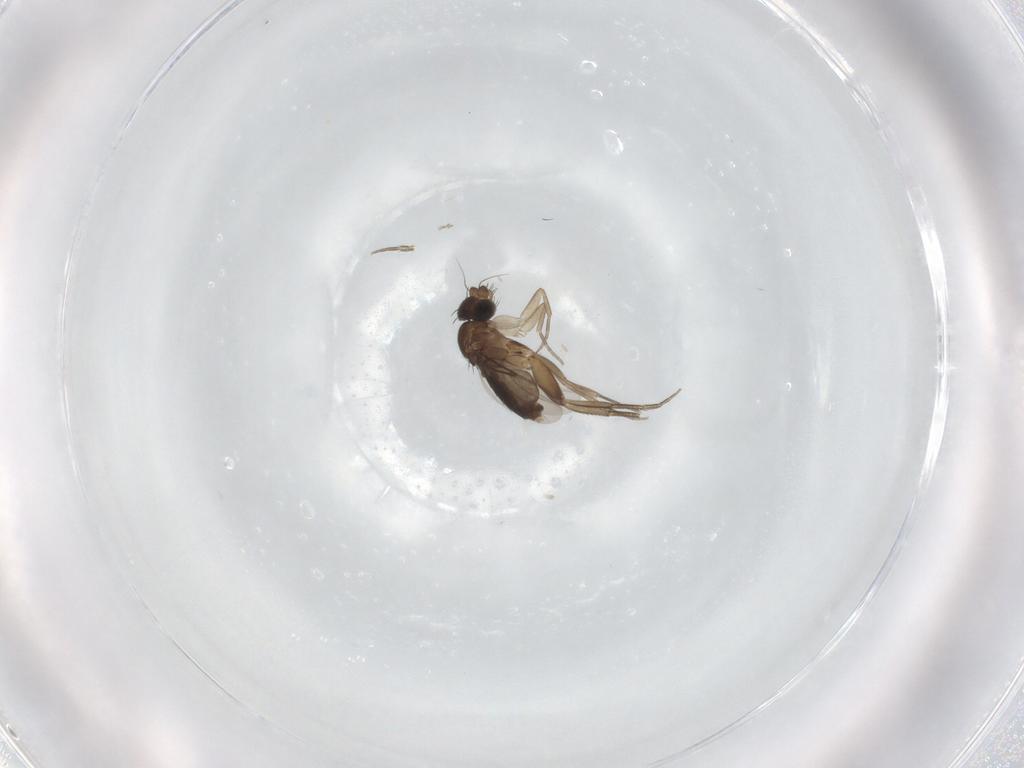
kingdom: Animalia
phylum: Arthropoda
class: Insecta
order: Diptera
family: Phoridae
